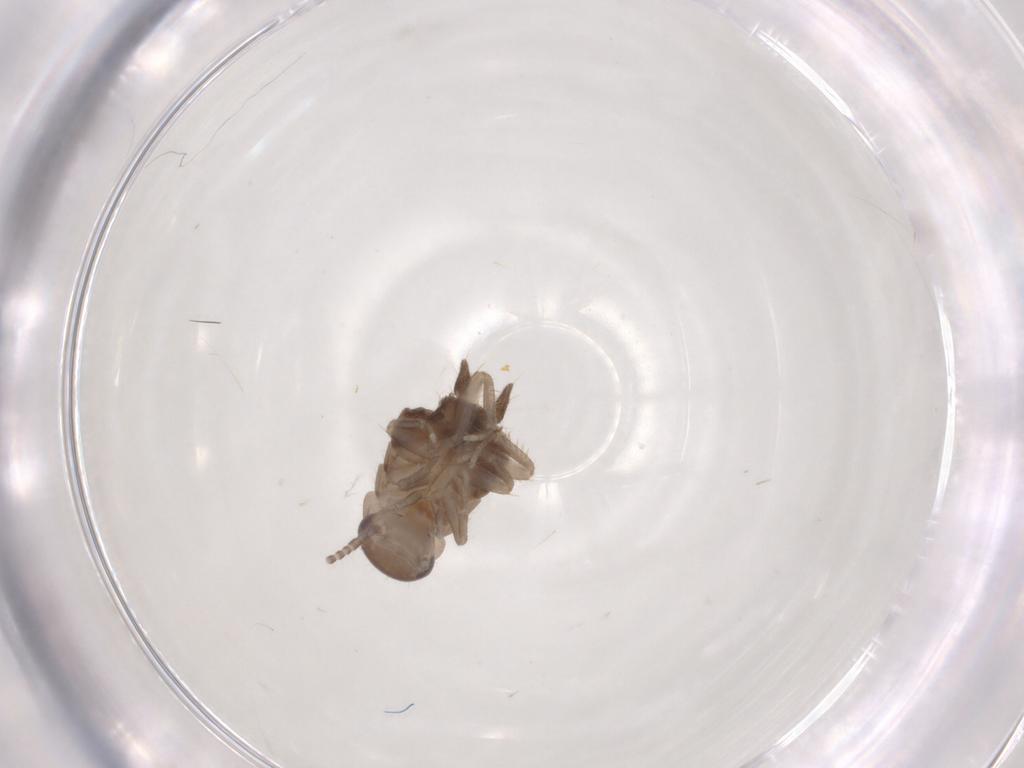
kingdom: Animalia
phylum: Arthropoda
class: Insecta
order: Blattodea
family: Ectobiidae
